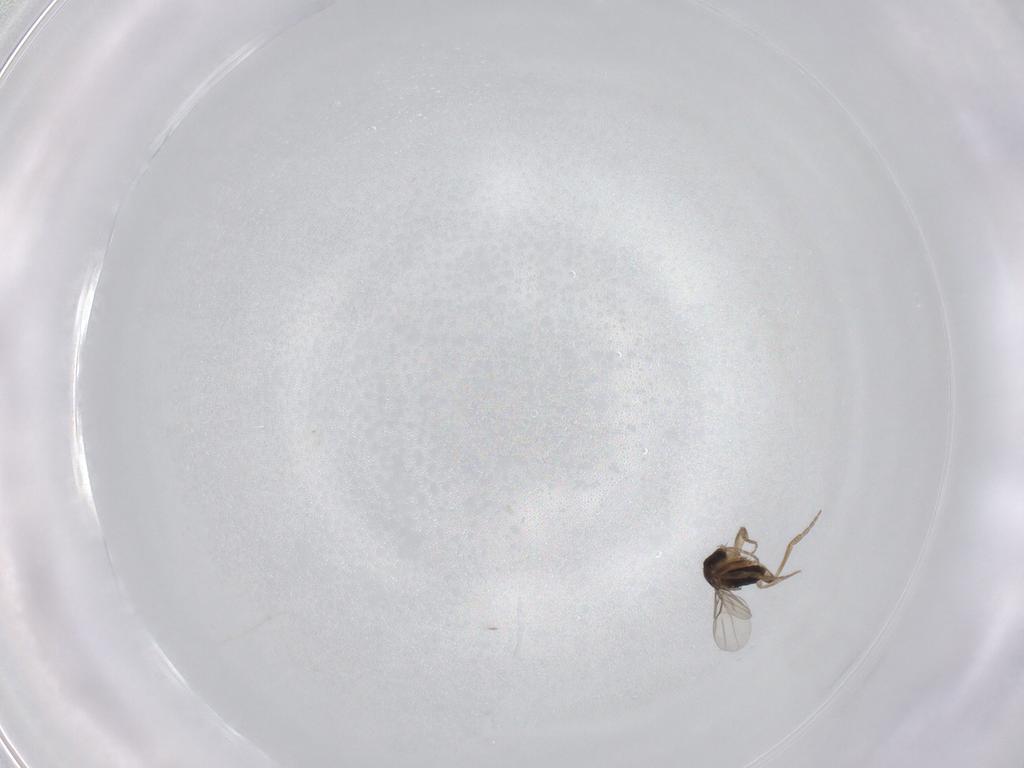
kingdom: Animalia
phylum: Arthropoda
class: Insecta
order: Diptera
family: Phoridae
